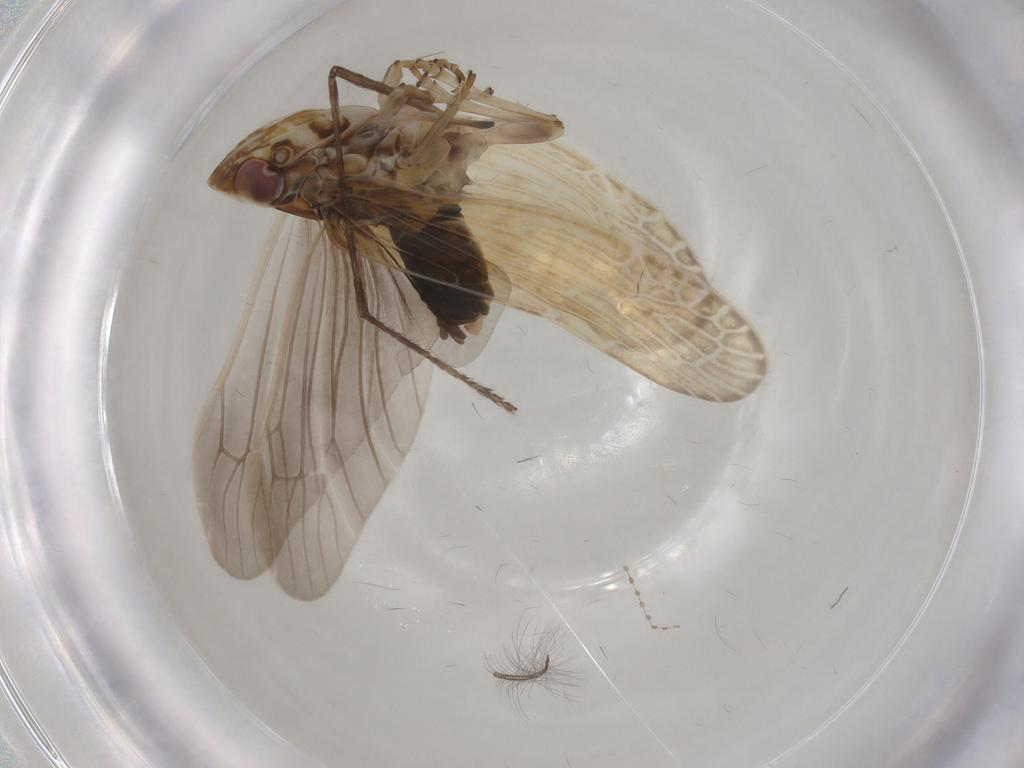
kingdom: Animalia
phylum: Arthropoda
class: Insecta
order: Hemiptera
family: Achilidae
